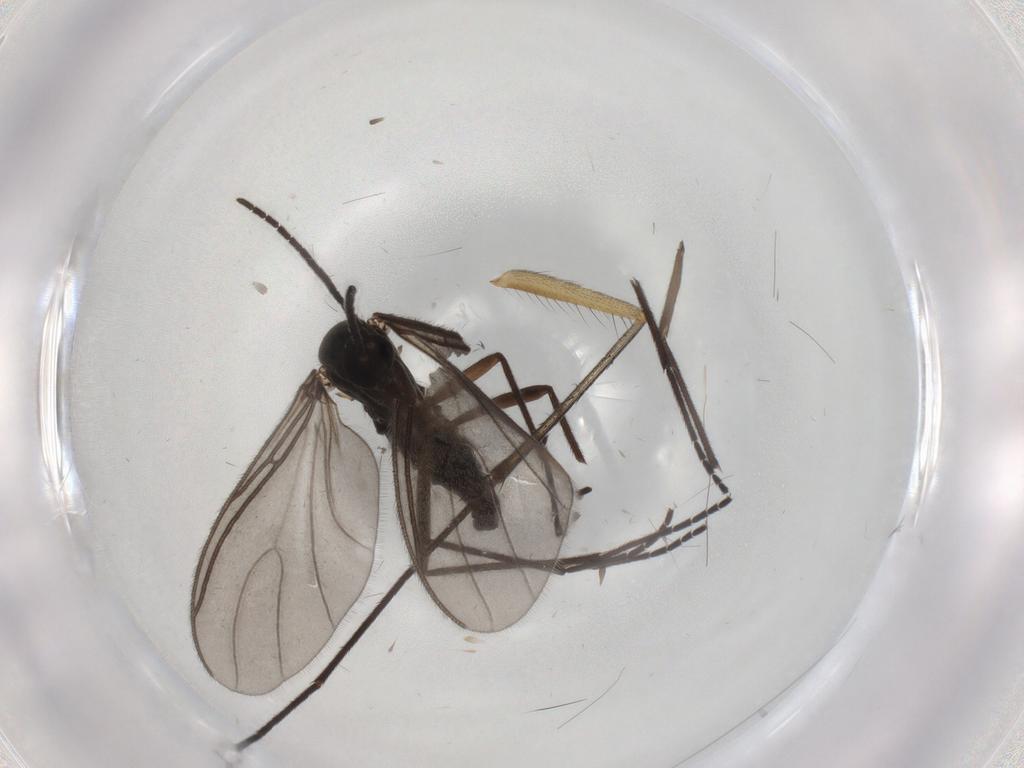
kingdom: Animalia
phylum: Arthropoda
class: Insecta
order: Diptera
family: Sciaridae
